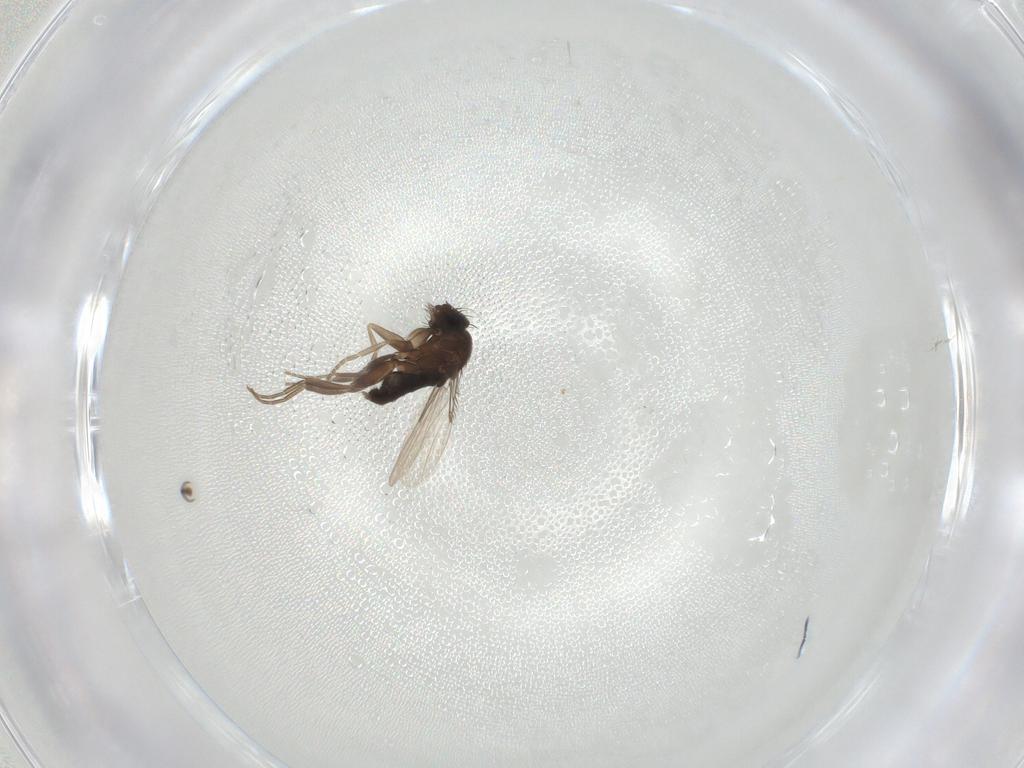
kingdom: Animalia
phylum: Arthropoda
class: Insecta
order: Diptera
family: Phoridae
